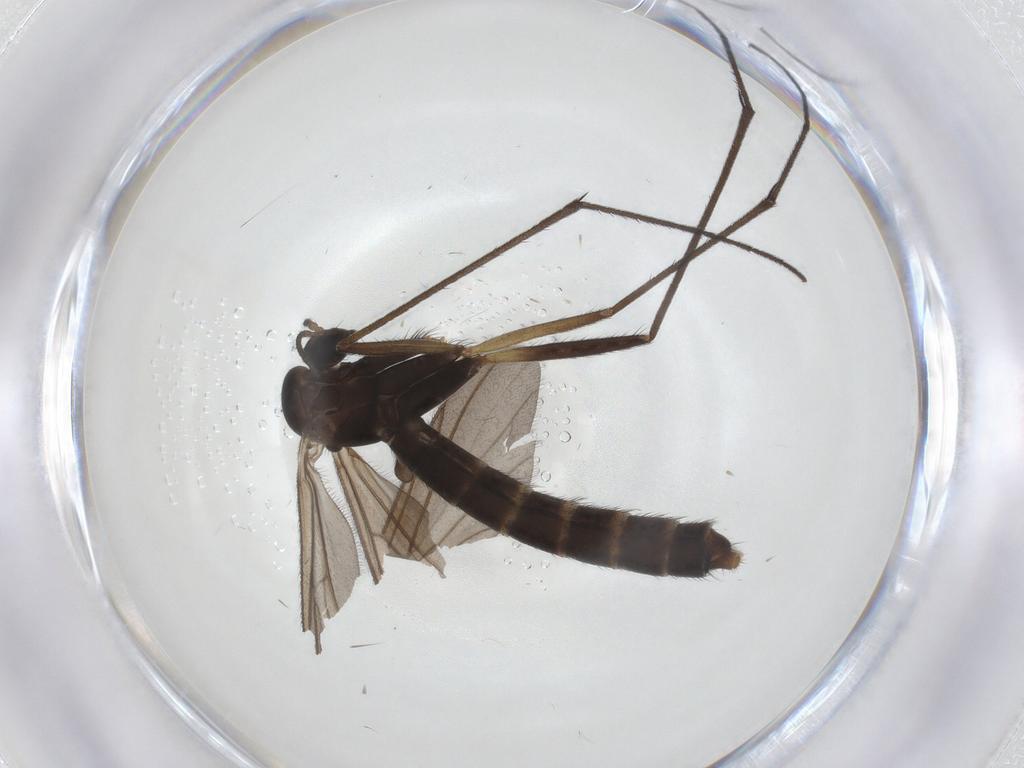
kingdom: Animalia
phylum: Arthropoda
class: Insecta
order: Diptera
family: Ditomyiidae
